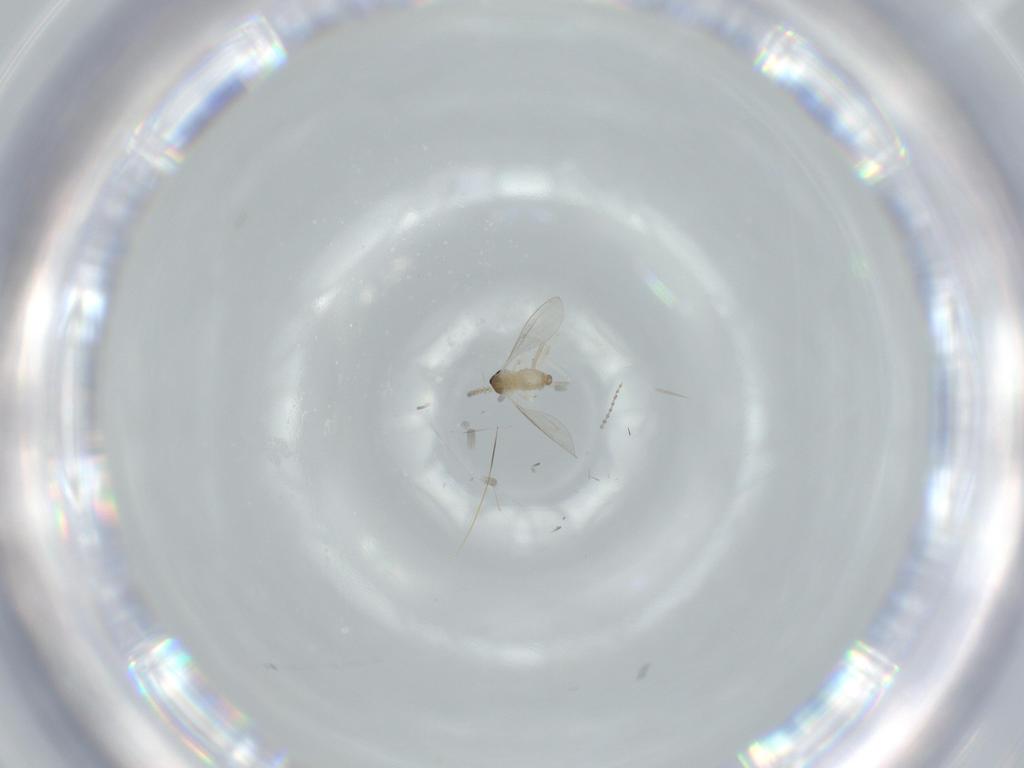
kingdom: Animalia
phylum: Arthropoda
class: Insecta
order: Diptera
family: Cecidomyiidae
